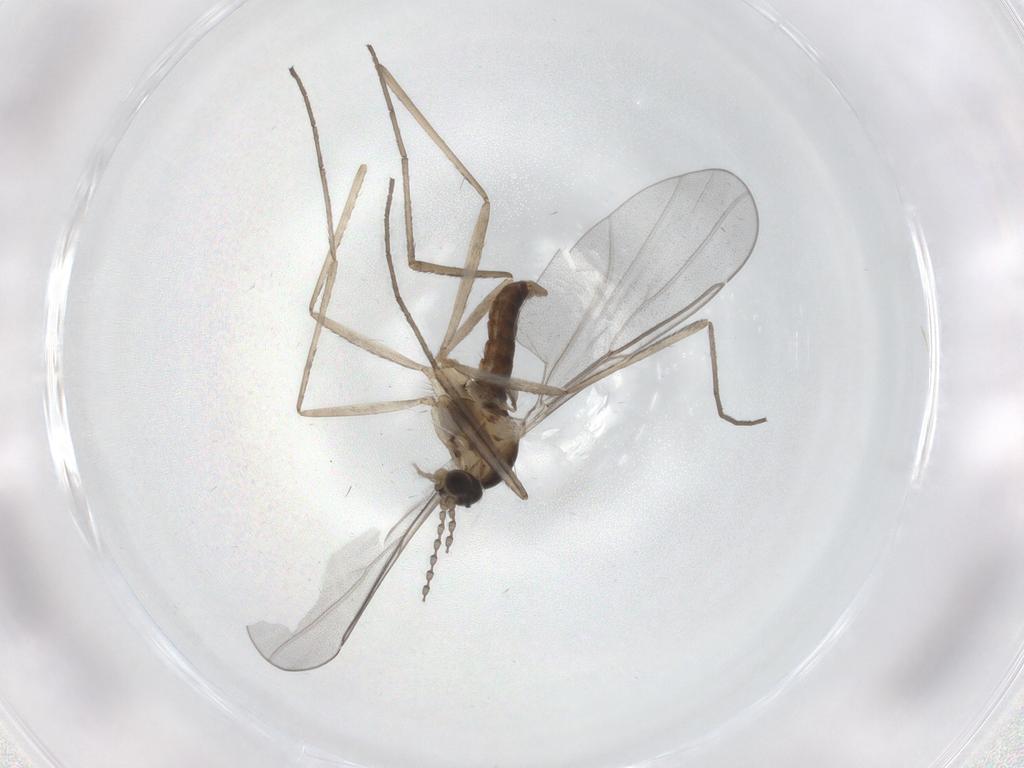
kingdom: Animalia
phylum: Arthropoda
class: Insecta
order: Diptera
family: Cecidomyiidae
